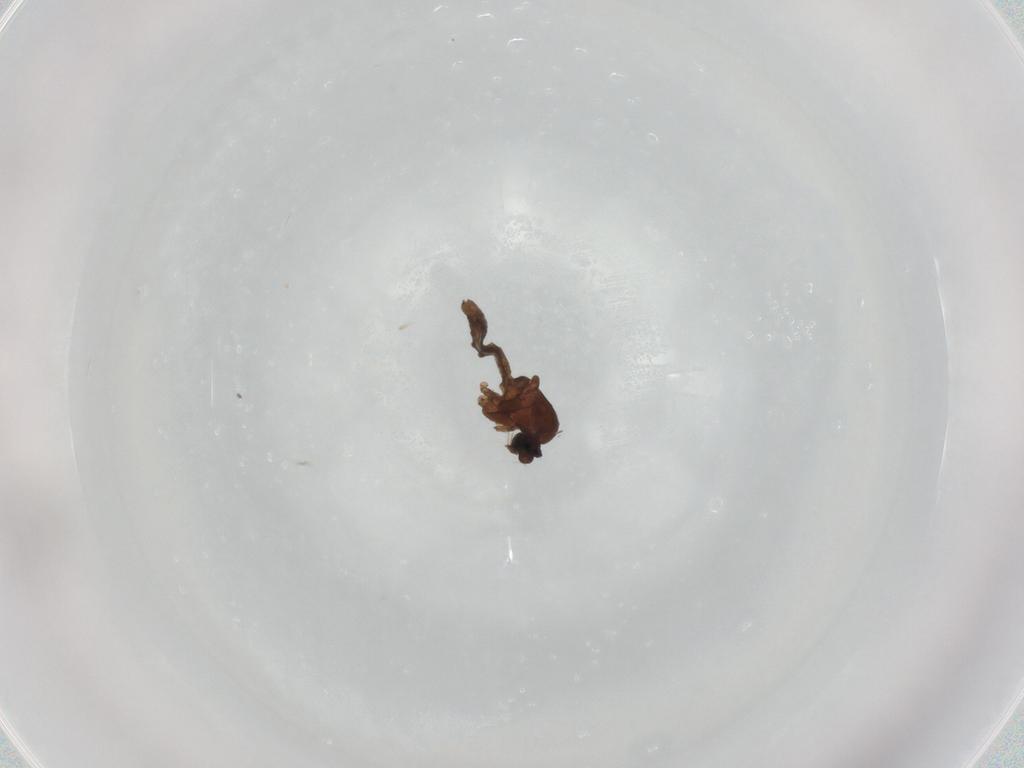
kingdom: Animalia
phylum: Arthropoda
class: Insecta
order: Diptera
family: Ceratopogonidae
